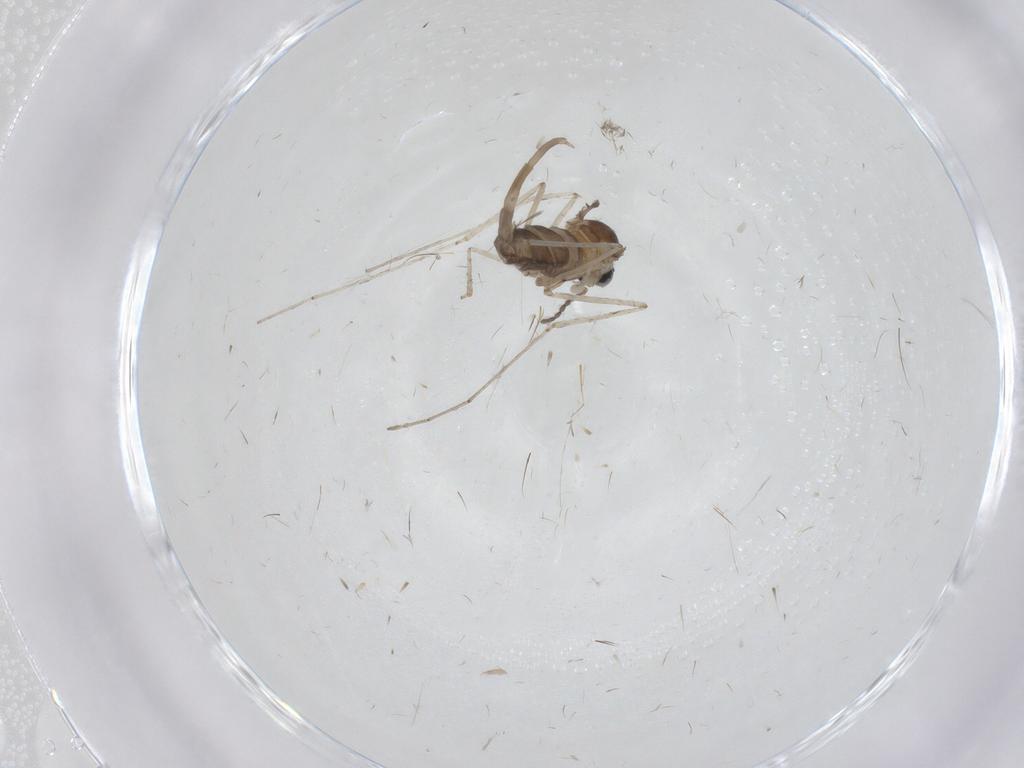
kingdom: Animalia
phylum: Arthropoda
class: Insecta
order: Diptera
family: Cecidomyiidae
